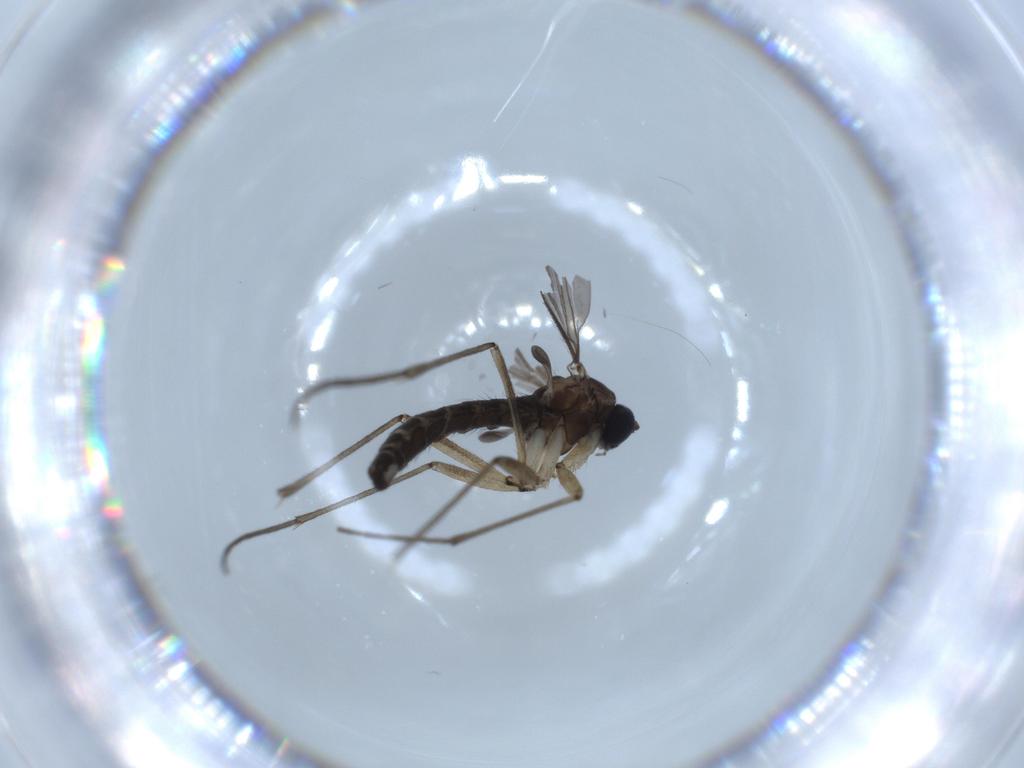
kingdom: Animalia
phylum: Arthropoda
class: Insecta
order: Diptera
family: Sciaridae
